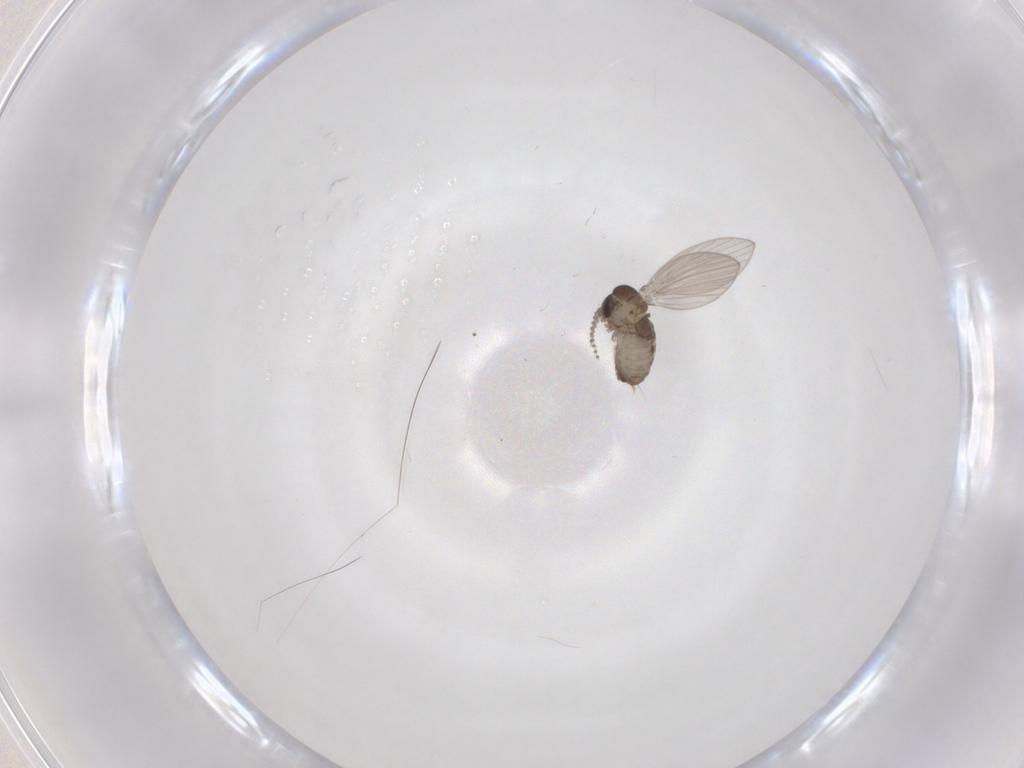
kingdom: Animalia
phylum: Arthropoda
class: Insecta
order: Diptera
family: Psychodidae
